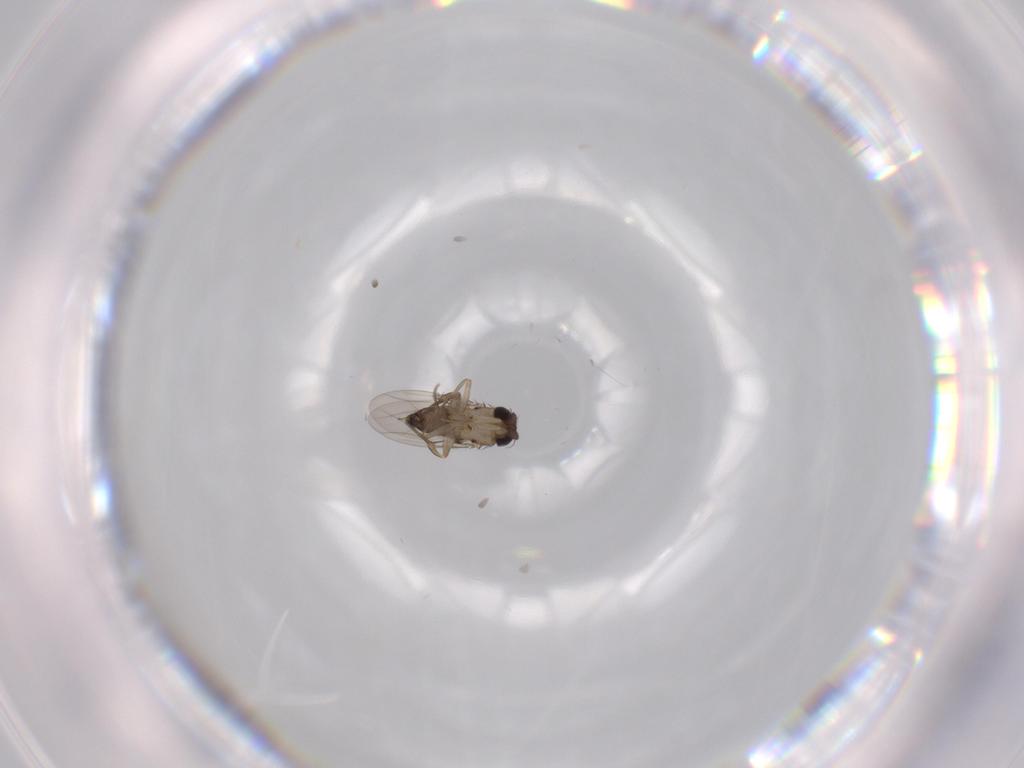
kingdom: Animalia
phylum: Arthropoda
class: Insecta
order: Diptera
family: Phoridae
